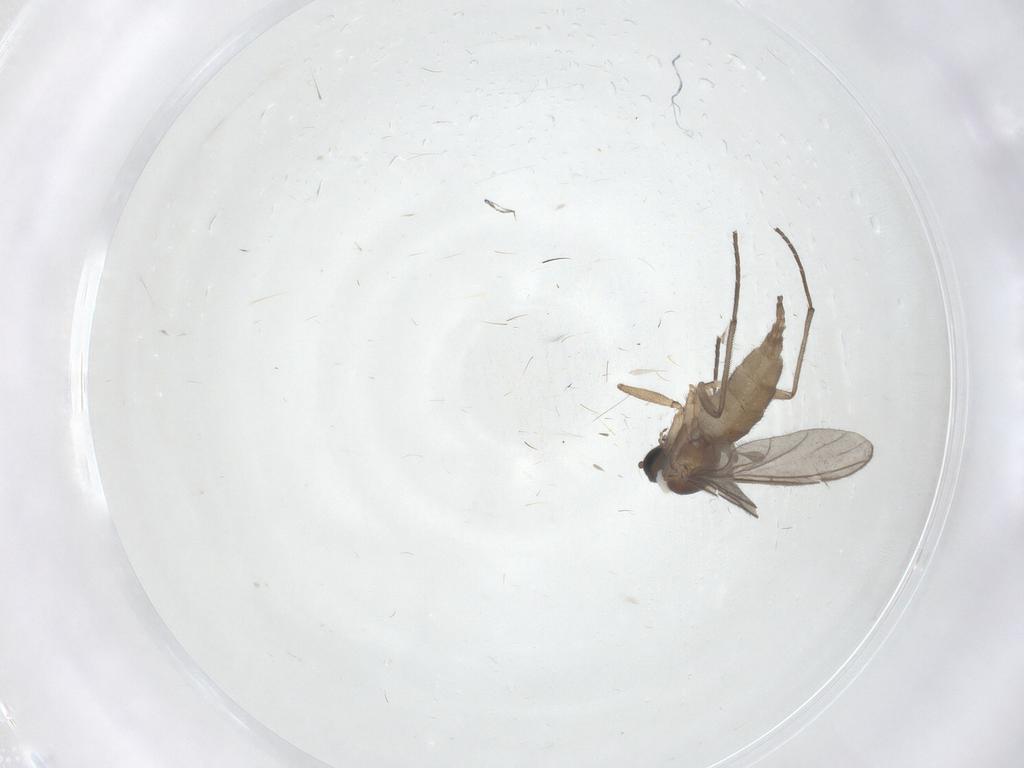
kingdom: Animalia
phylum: Arthropoda
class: Insecta
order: Diptera
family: Sciaridae
